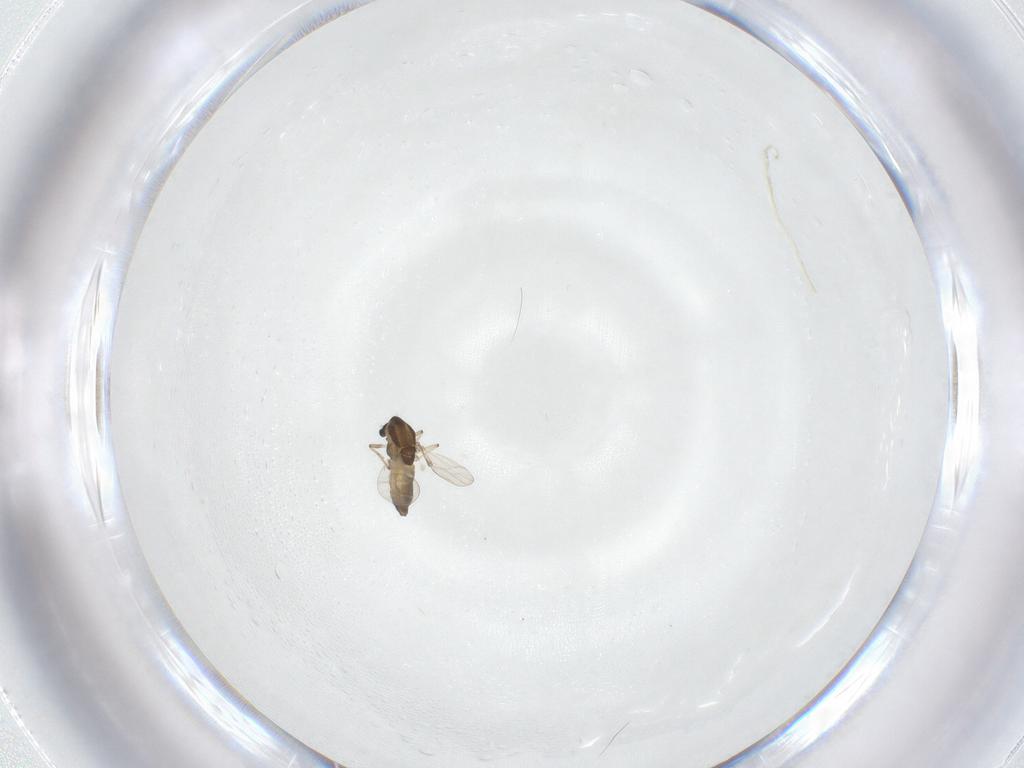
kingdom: Animalia
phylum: Arthropoda
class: Insecta
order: Diptera
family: Chironomidae
